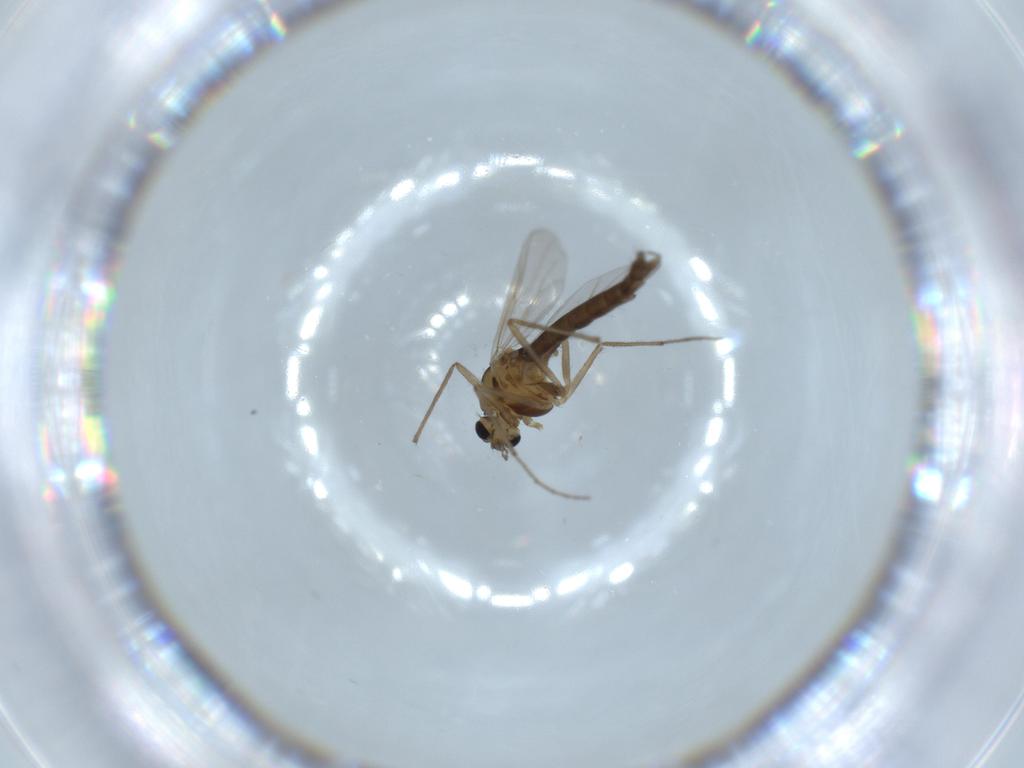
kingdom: Animalia
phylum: Arthropoda
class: Insecta
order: Diptera
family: Chironomidae
